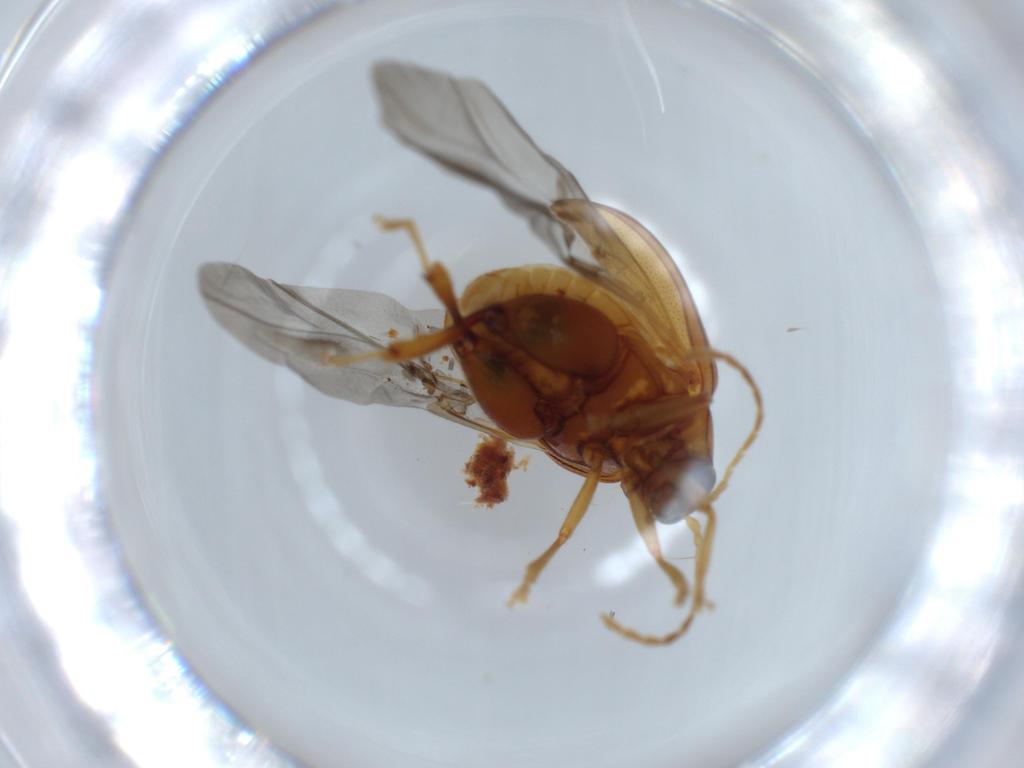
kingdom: Animalia
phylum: Arthropoda
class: Insecta
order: Coleoptera
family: Chrysomelidae
